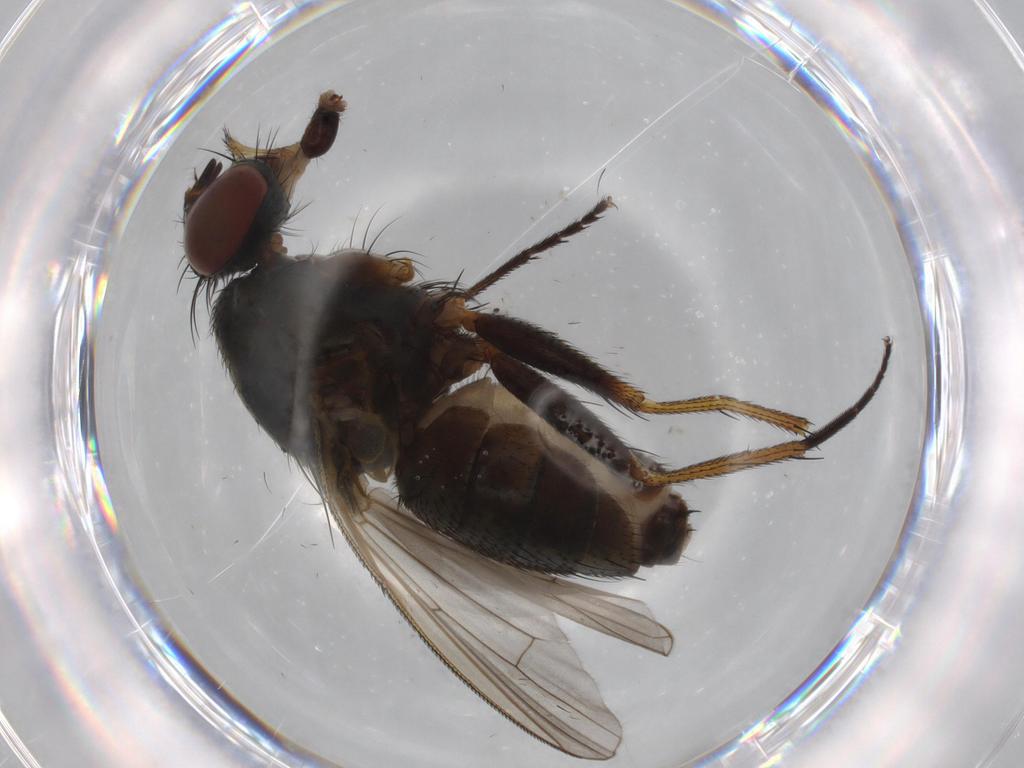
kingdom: Animalia
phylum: Arthropoda
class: Insecta
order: Diptera
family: Muscidae
